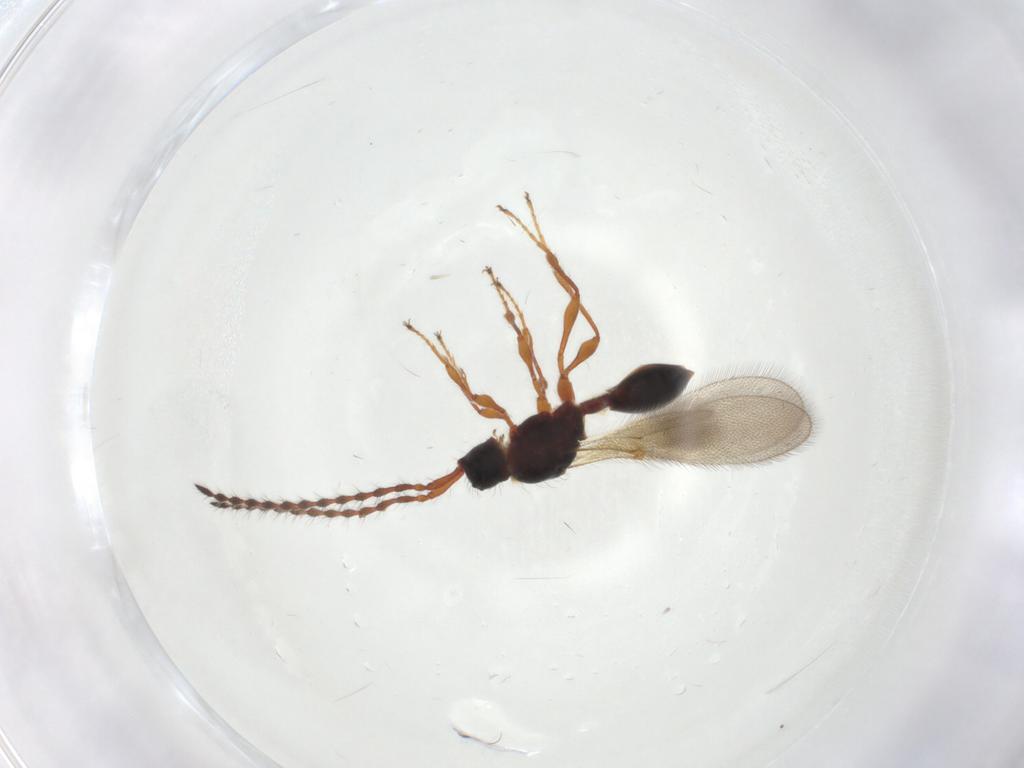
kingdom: Animalia
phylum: Arthropoda
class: Insecta
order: Hymenoptera
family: Diapriidae
